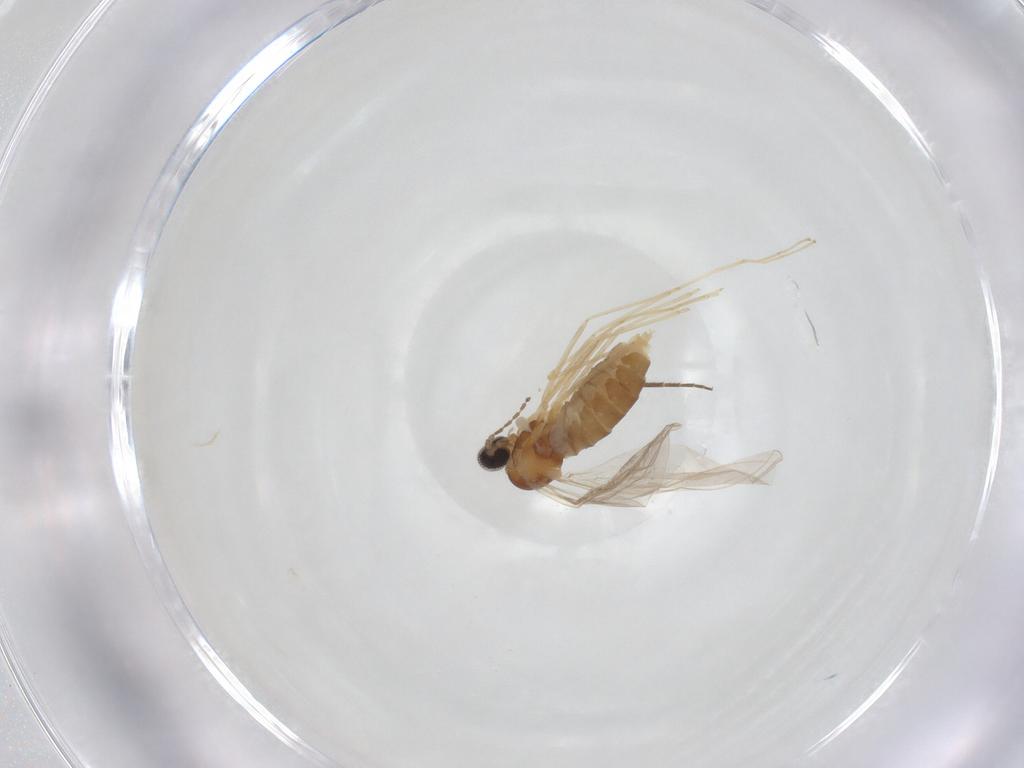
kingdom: Animalia
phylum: Arthropoda
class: Insecta
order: Diptera
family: Cecidomyiidae
